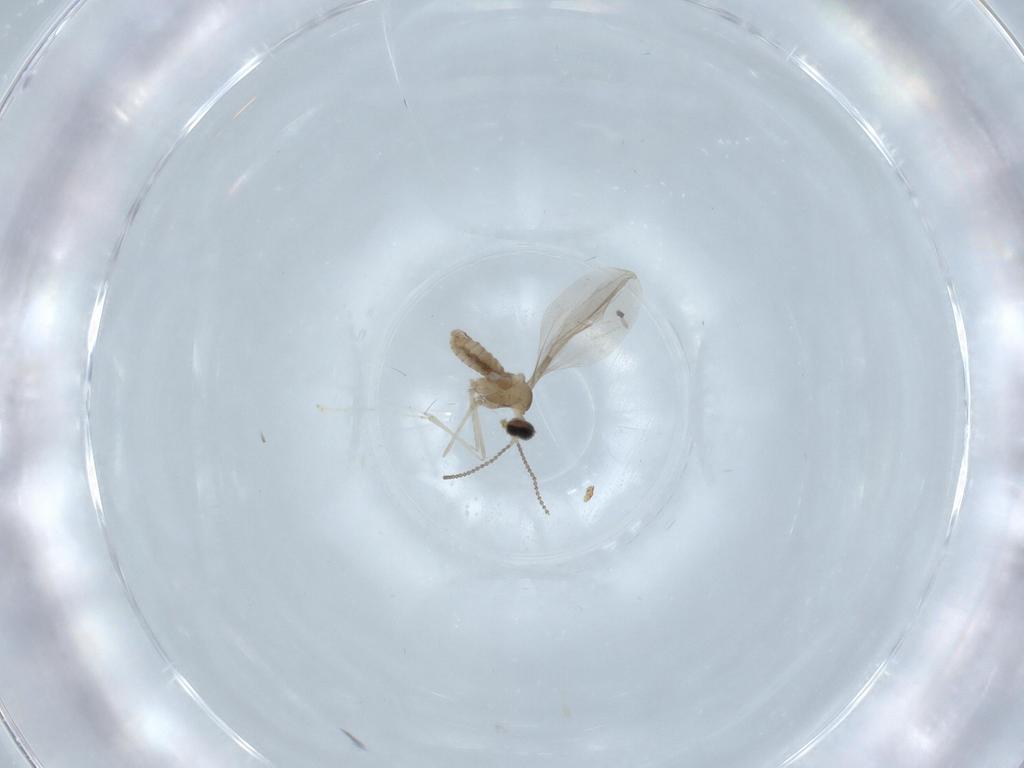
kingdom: Animalia
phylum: Arthropoda
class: Insecta
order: Diptera
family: Cecidomyiidae
